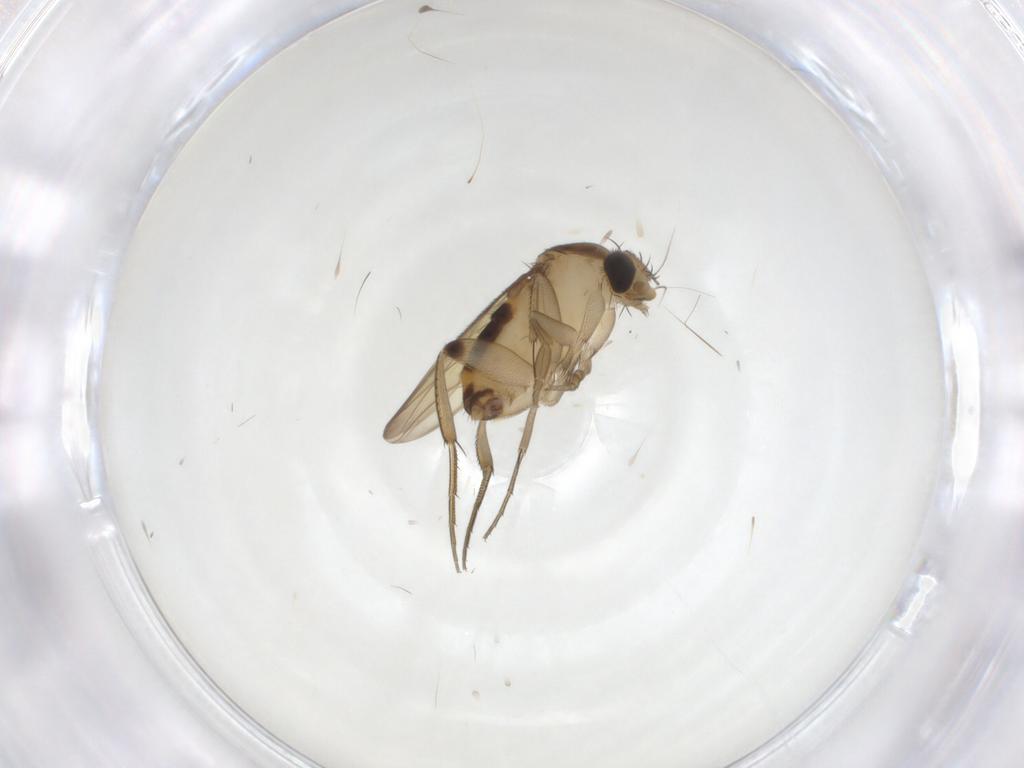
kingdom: Animalia
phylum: Arthropoda
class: Insecta
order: Diptera
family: Phoridae
